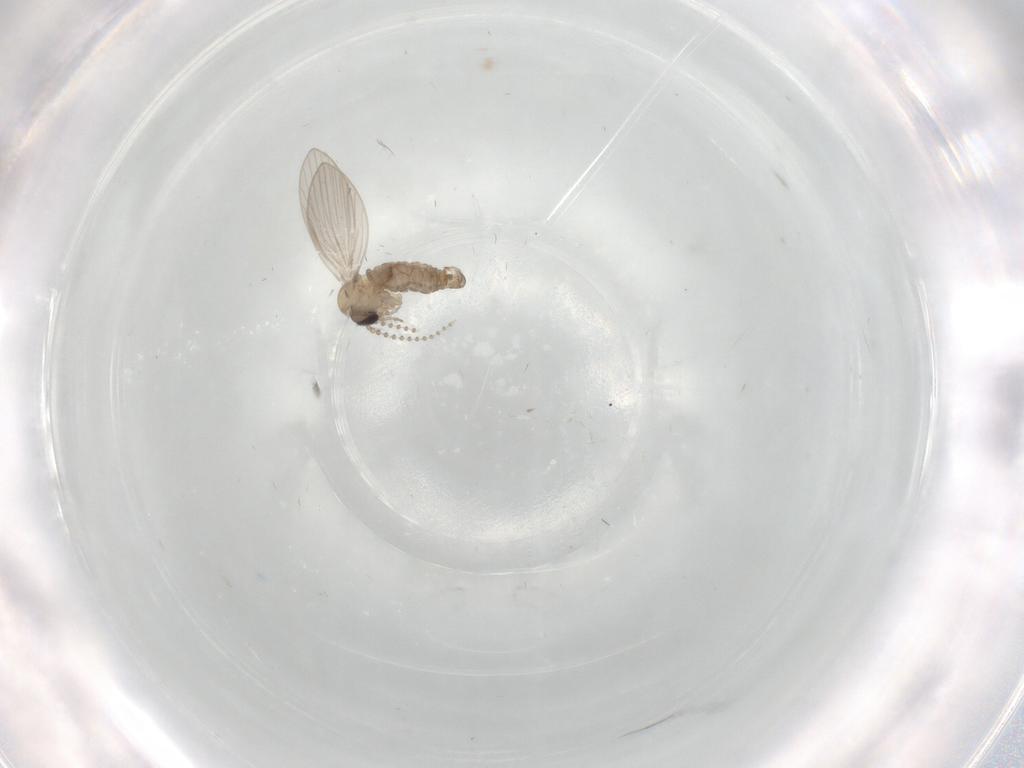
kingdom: Animalia
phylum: Arthropoda
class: Insecta
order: Diptera
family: Psychodidae
